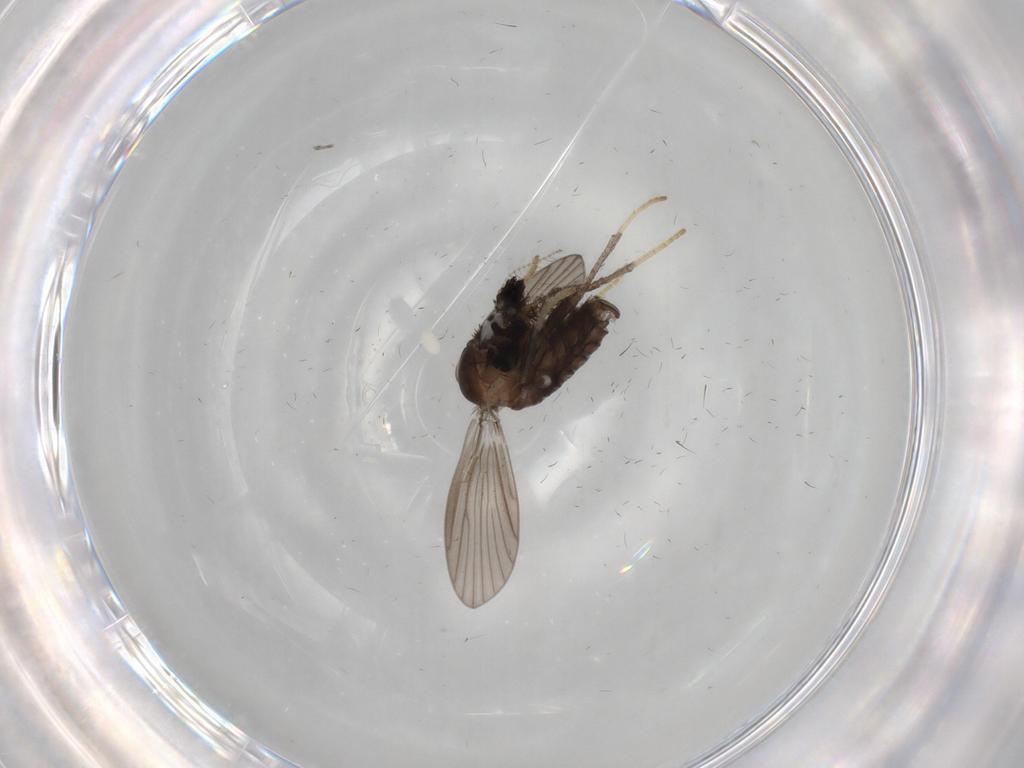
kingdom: Animalia
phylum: Arthropoda
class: Insecta
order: Diptera
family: Psychodidae
